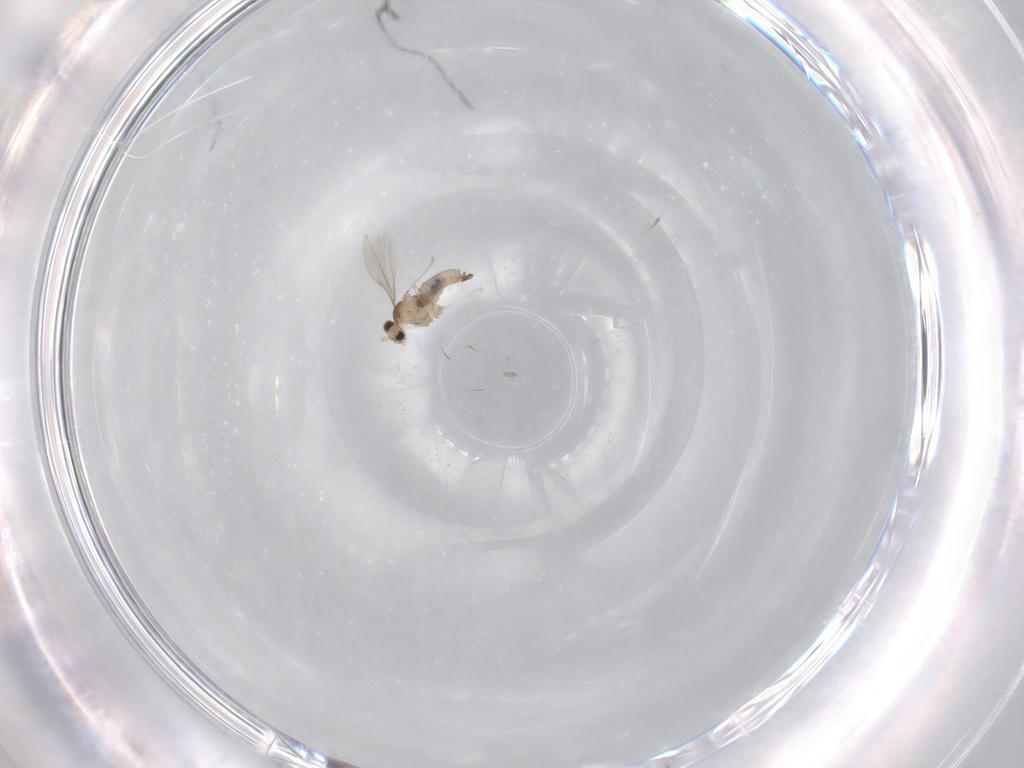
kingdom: Animalia
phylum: Arthropoda
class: Insecta
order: Diptera
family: Cecidomyiidae
